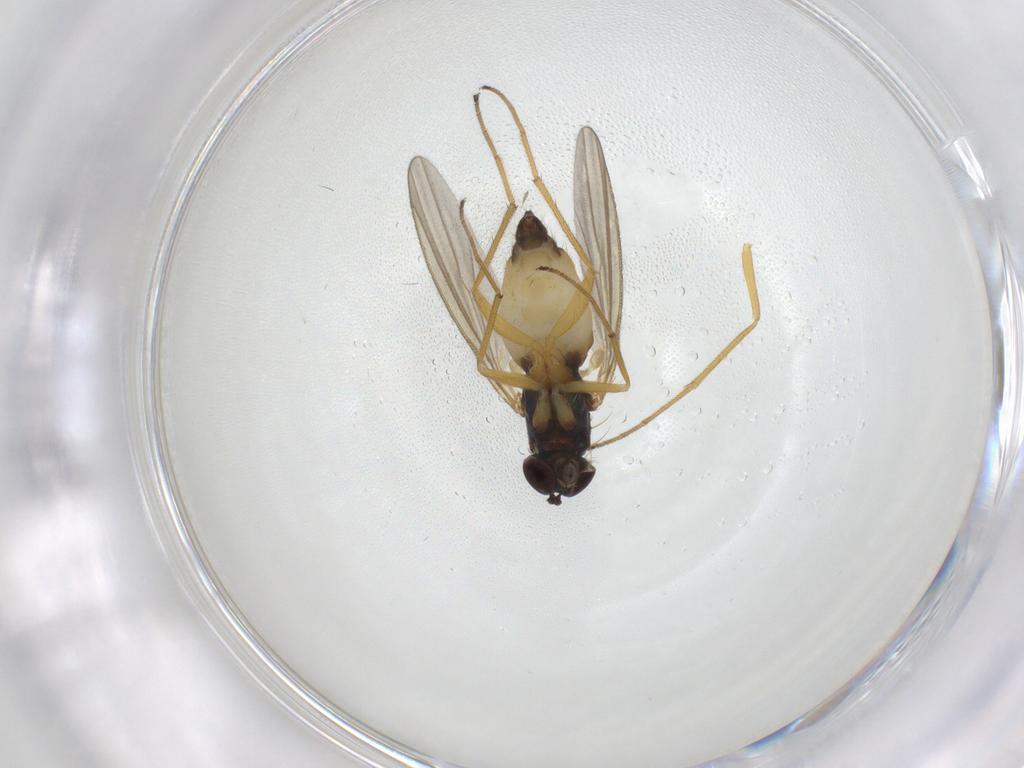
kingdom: Animalia
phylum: Arthropoda
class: Insecta
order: Diptera
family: Dolichopodidae
